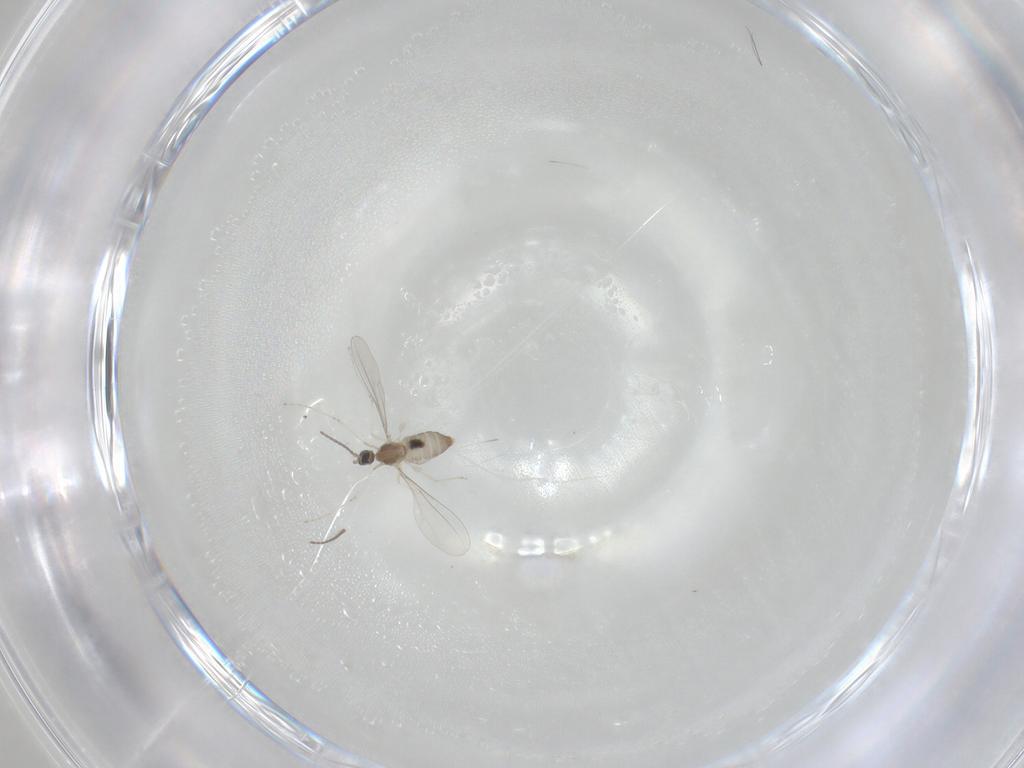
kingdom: Animalia
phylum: Arthropoda
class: Insecta
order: Diptera
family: Cecidomyiidae
